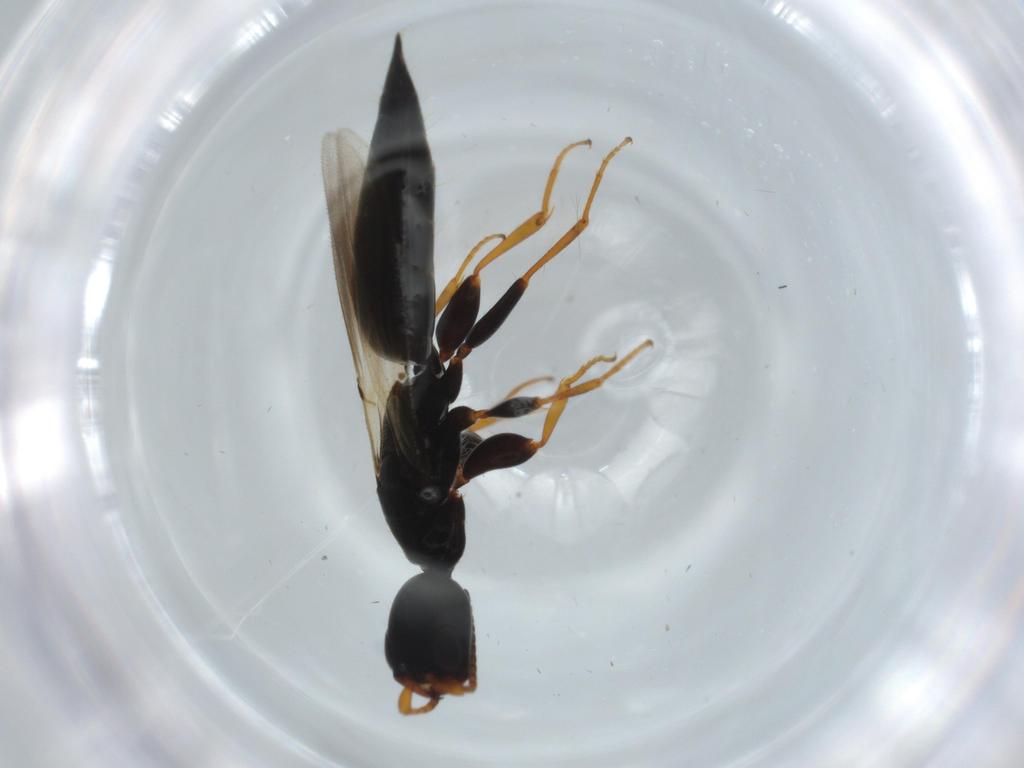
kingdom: Animalia
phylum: Arthropoda
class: Insecta
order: Hymenoptera
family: Bethylidae
